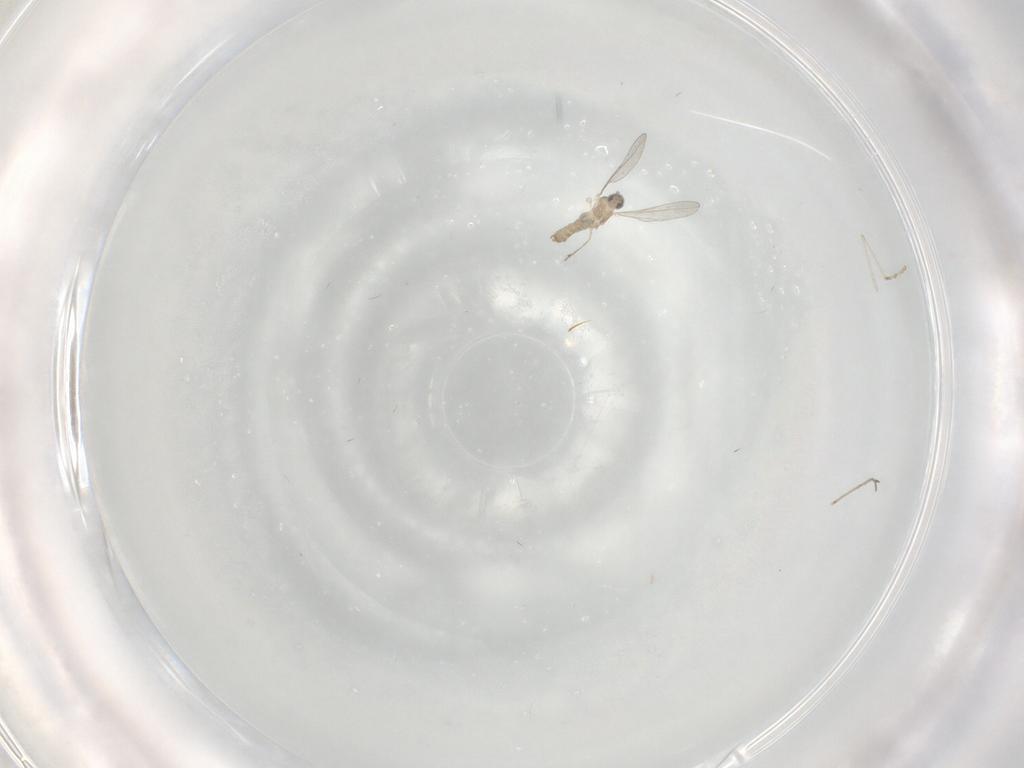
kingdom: Animalia
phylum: Arthropoda
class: Insecta
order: Diptera
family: Cecidomyiidae
